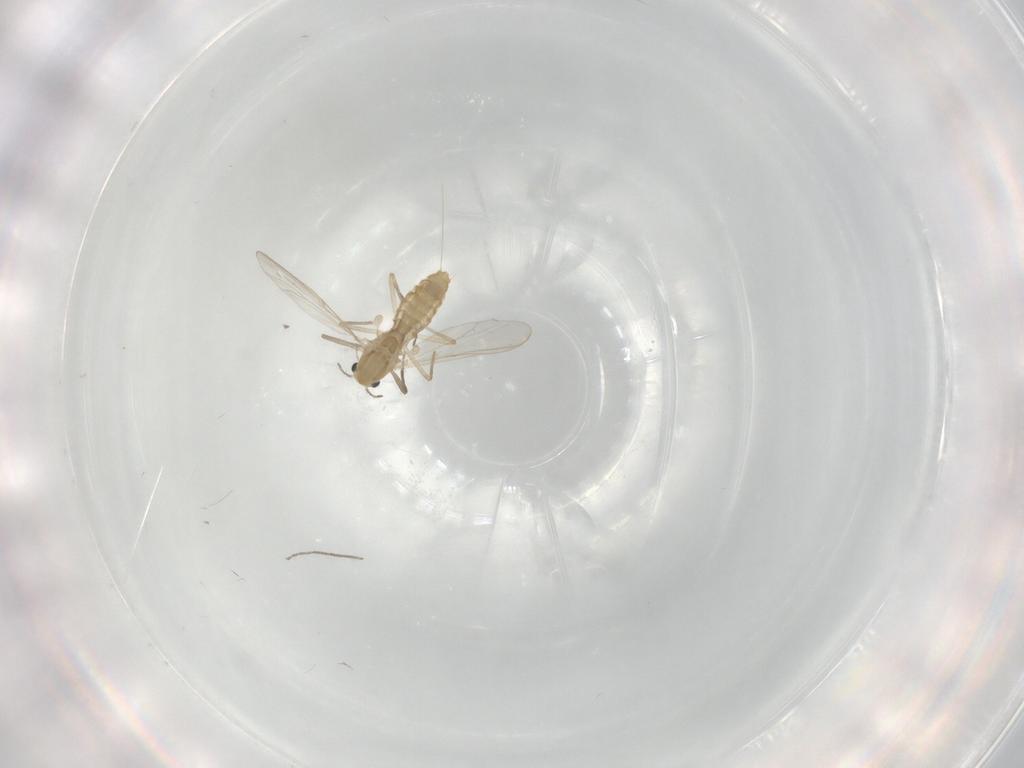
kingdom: Animalia
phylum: Arthropoda
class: Insecta
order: Diptera
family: Chironomidae
